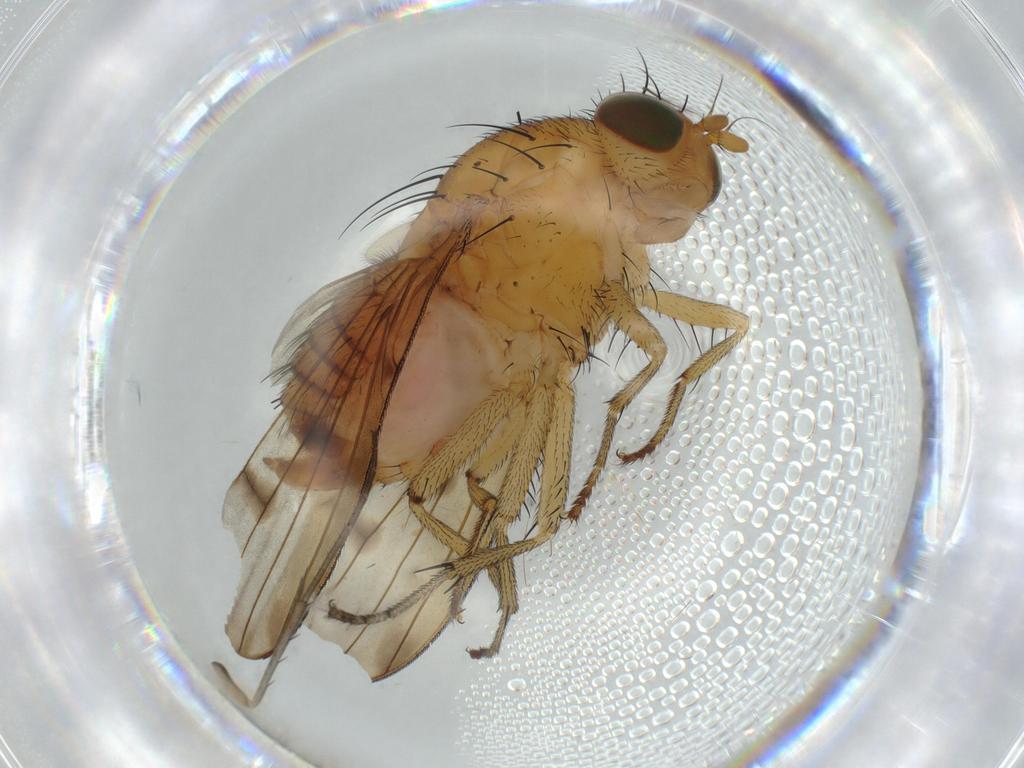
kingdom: Animalia
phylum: Arthropoda
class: Insecta
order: Diptera
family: Mycetophilidae
